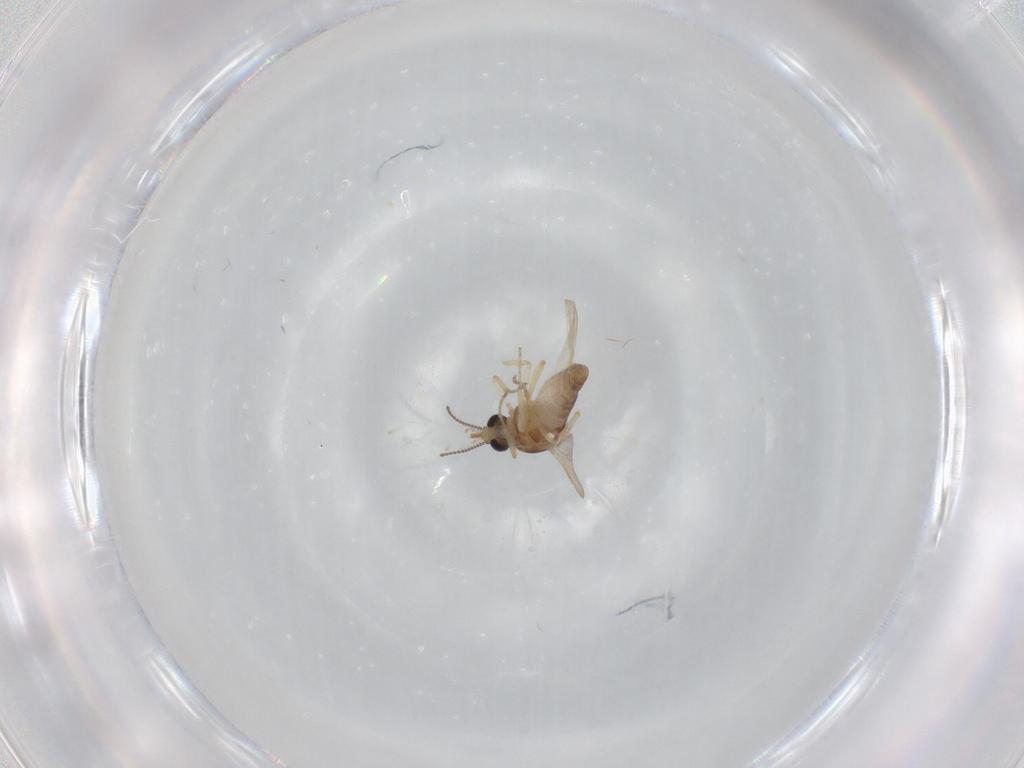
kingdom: Animalia
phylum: Arthropoda
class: Insecta
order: Diptera
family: Ceratopogonidae
